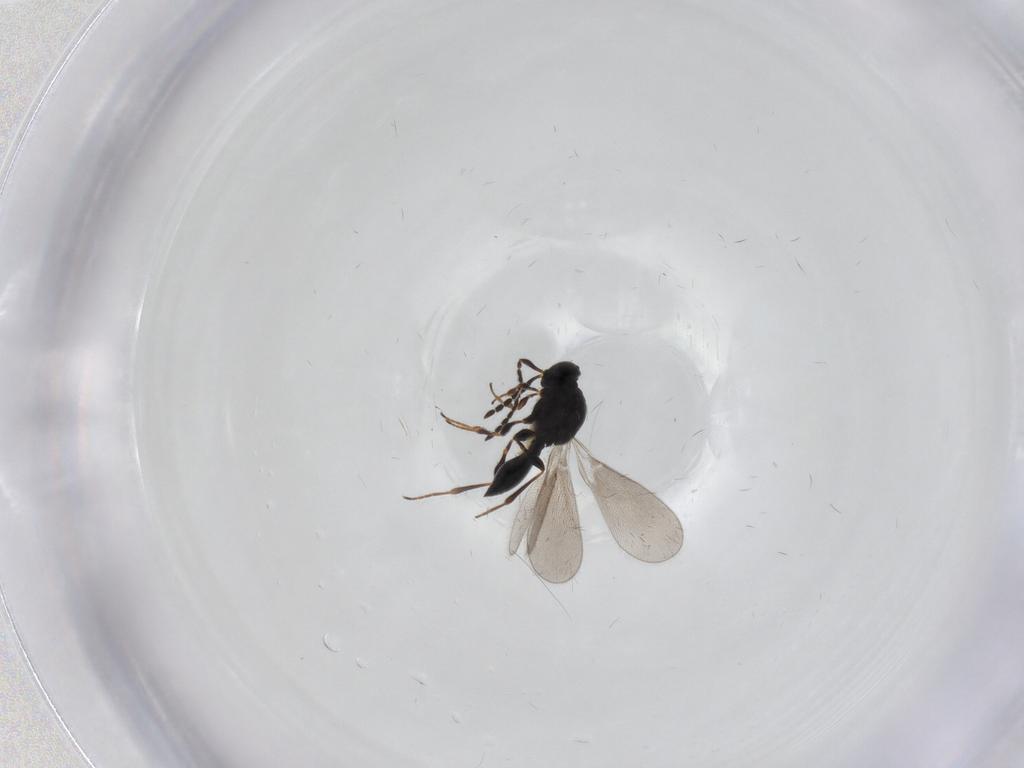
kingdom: Animalia
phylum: Arthropoda
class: Insecta
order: Hymenoptera
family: Platygastridae
